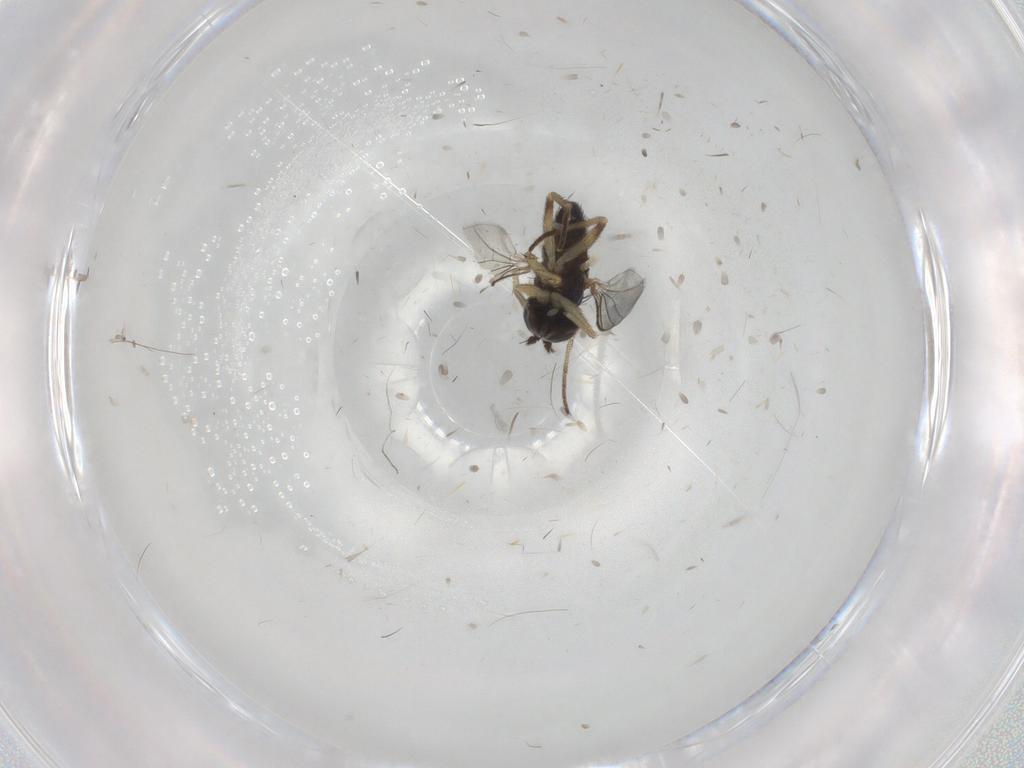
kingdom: Animalia
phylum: Arthropoda
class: Insecta
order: Diptera
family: Dolichopodidae
